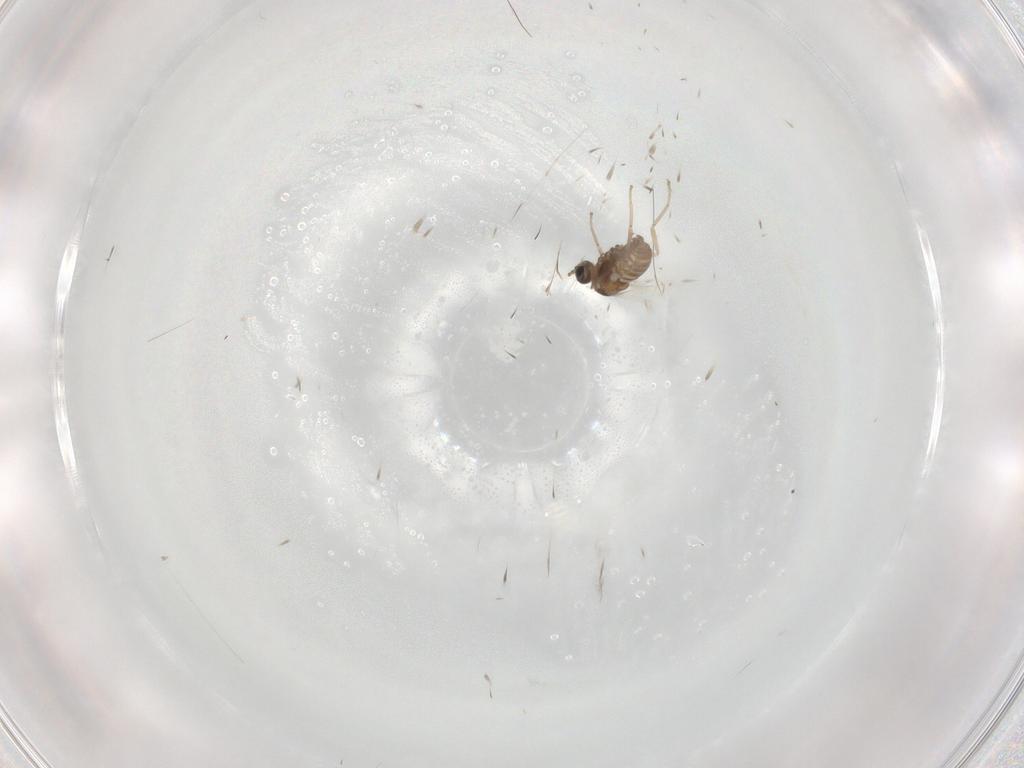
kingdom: Animalia
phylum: Arthropoda
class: Insecta
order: Diptera
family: Cecidomyiidae
